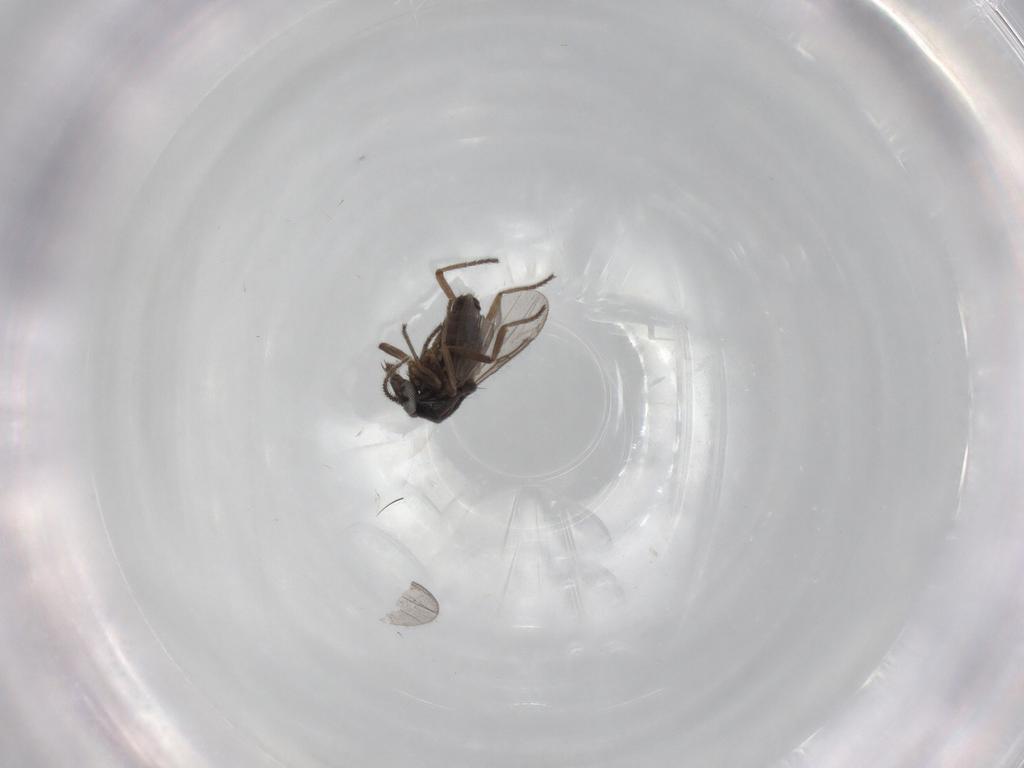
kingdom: Animalia
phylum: Arthropoda
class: Insecta
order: Diptera
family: Ceratopogonidae
